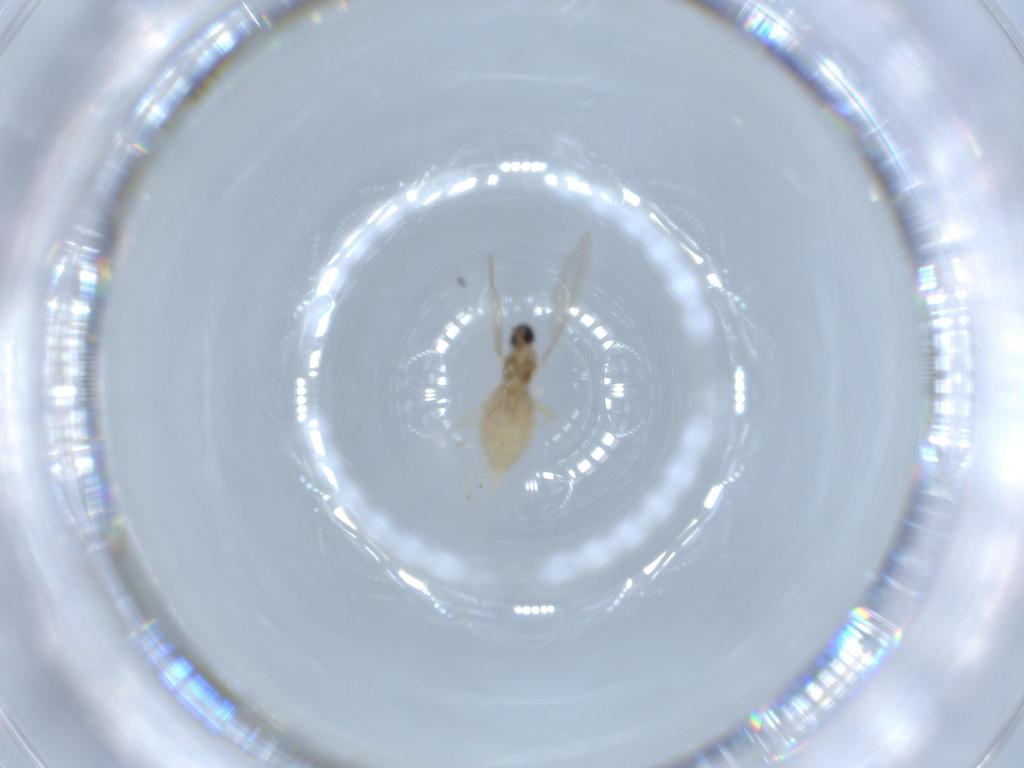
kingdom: Animalia
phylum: Arthropoda
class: Insecta
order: Diptera
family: Cecidomyiidae
